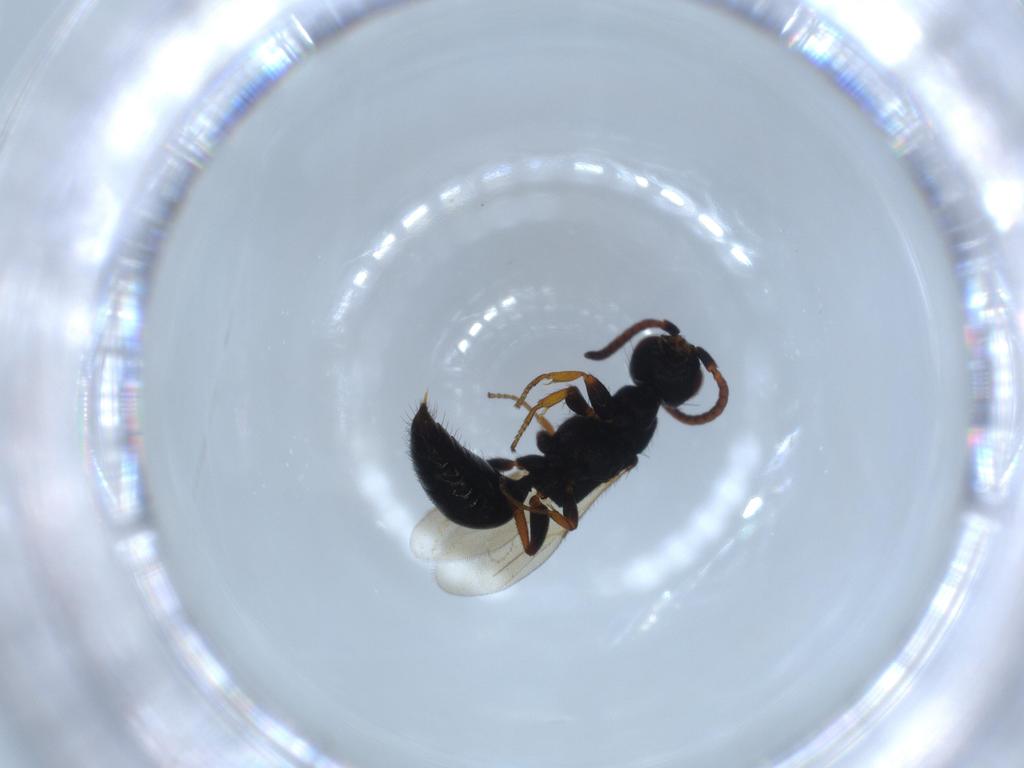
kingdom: Animalia
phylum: Arthropoda
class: Insecta
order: Hymenoptera
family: Bethylidae
